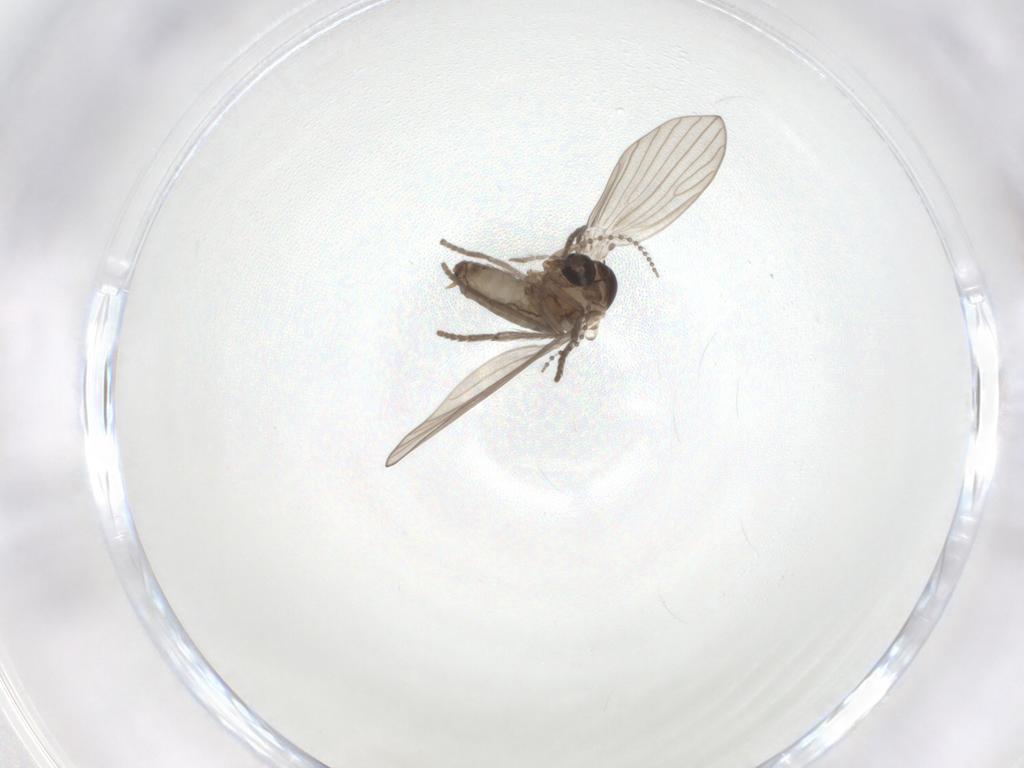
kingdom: Animalia
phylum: Arthropoda
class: Insecta
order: Diptera
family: Psychodidae
